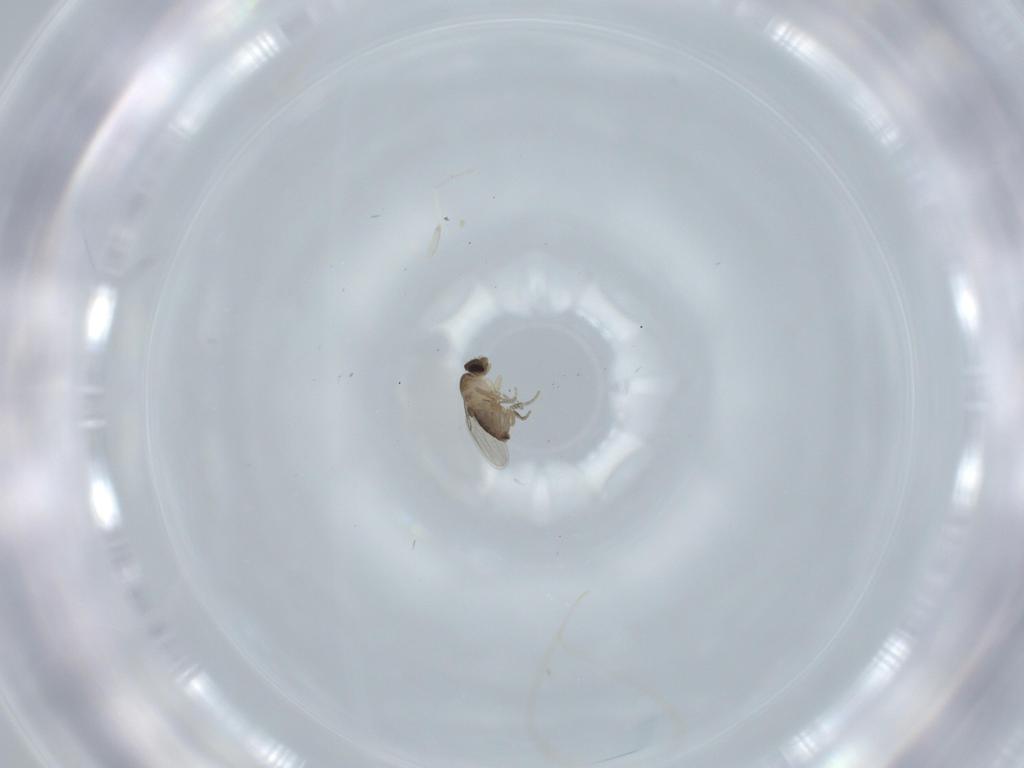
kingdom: Animalia
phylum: Arthropoda
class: Insecta
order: Diptera
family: Phoridae
